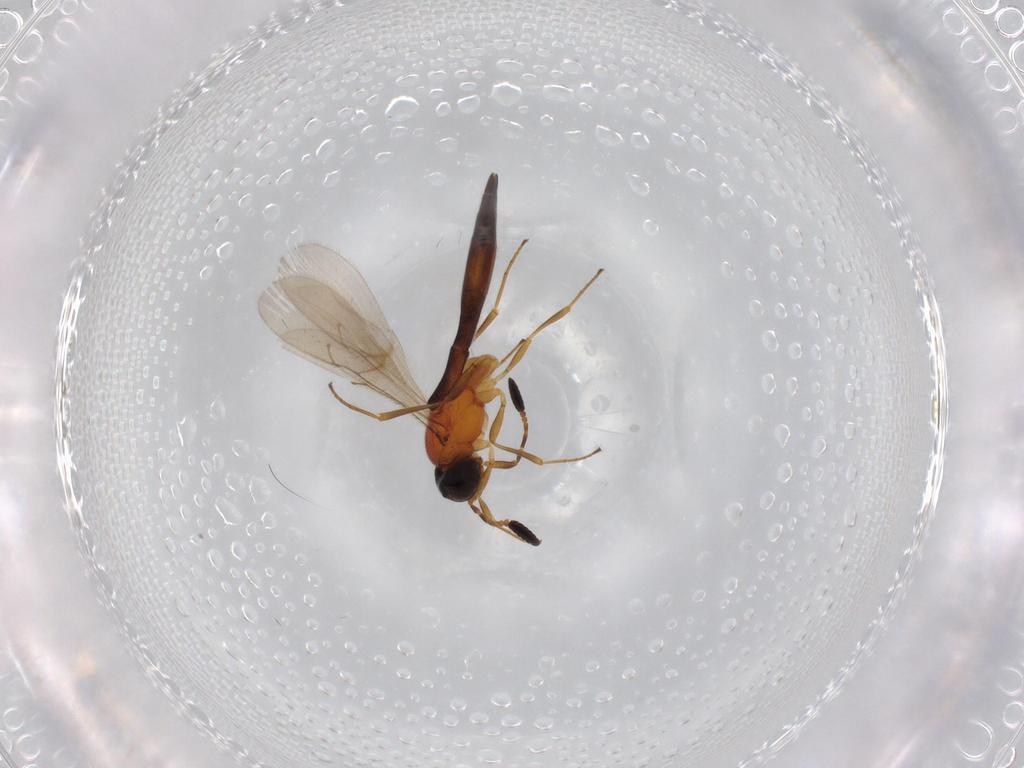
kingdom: Animalia
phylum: Arthropoda
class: Insecta
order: Hymenoptera
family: Scelionidae
